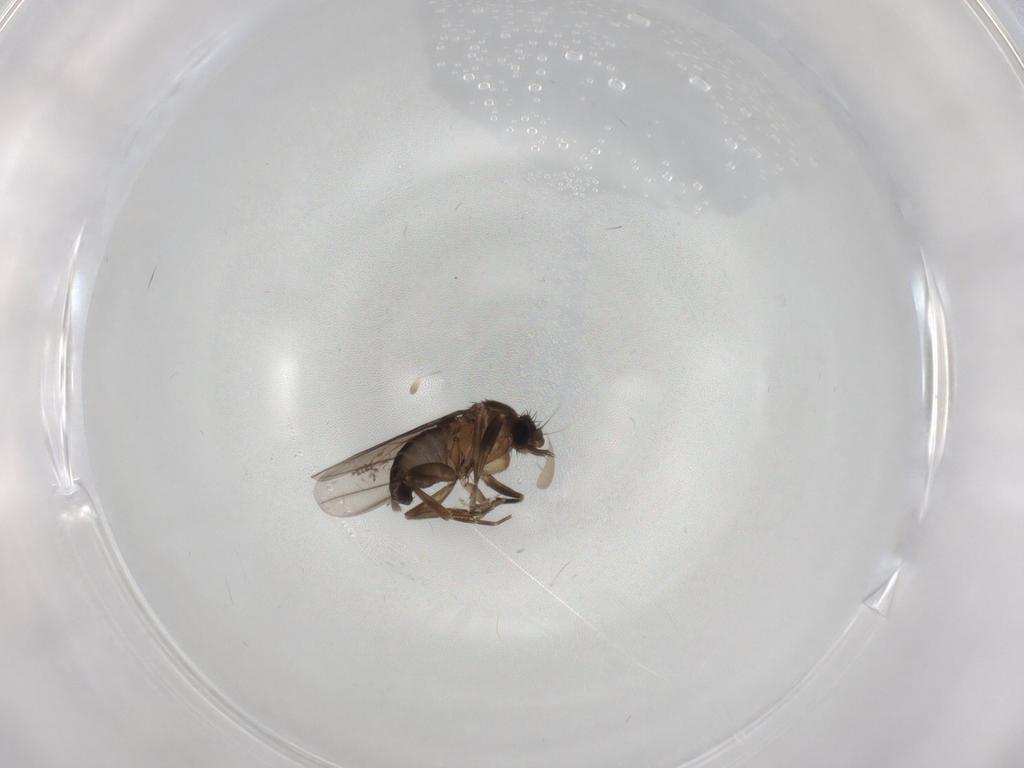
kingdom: Animalia
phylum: Arthropoda
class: Insecta
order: Diptera
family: Cecidomyiidae
